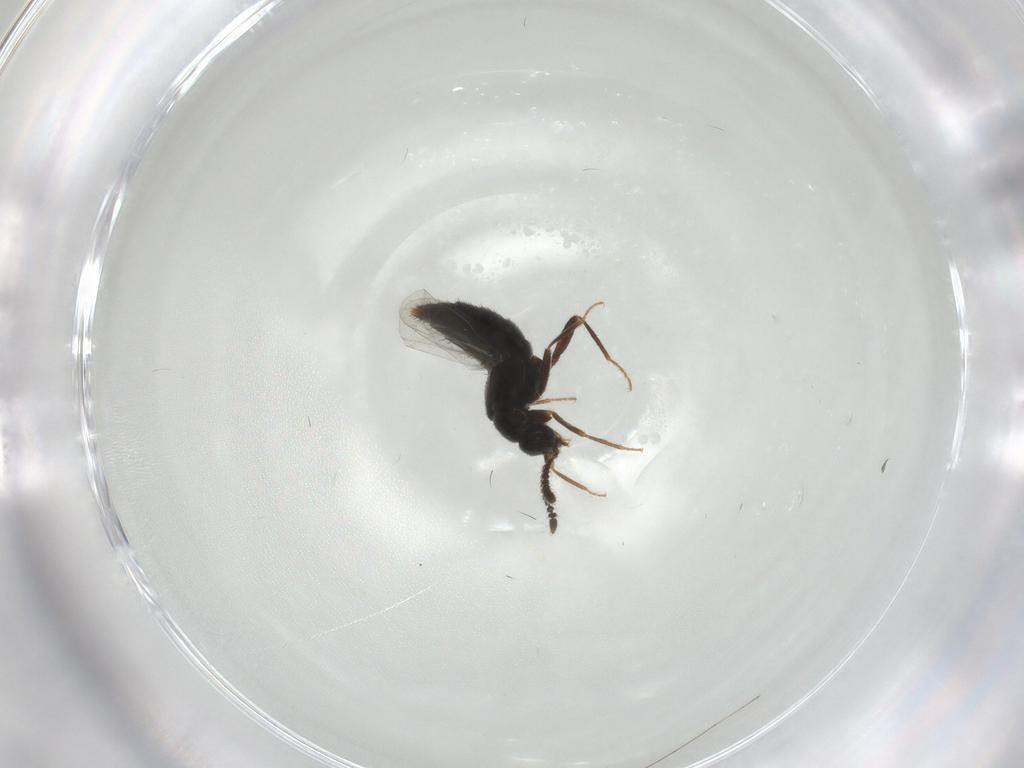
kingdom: Animalia
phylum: Arthropoda
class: Insecta
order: Coleoptera
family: Staphylinidae
